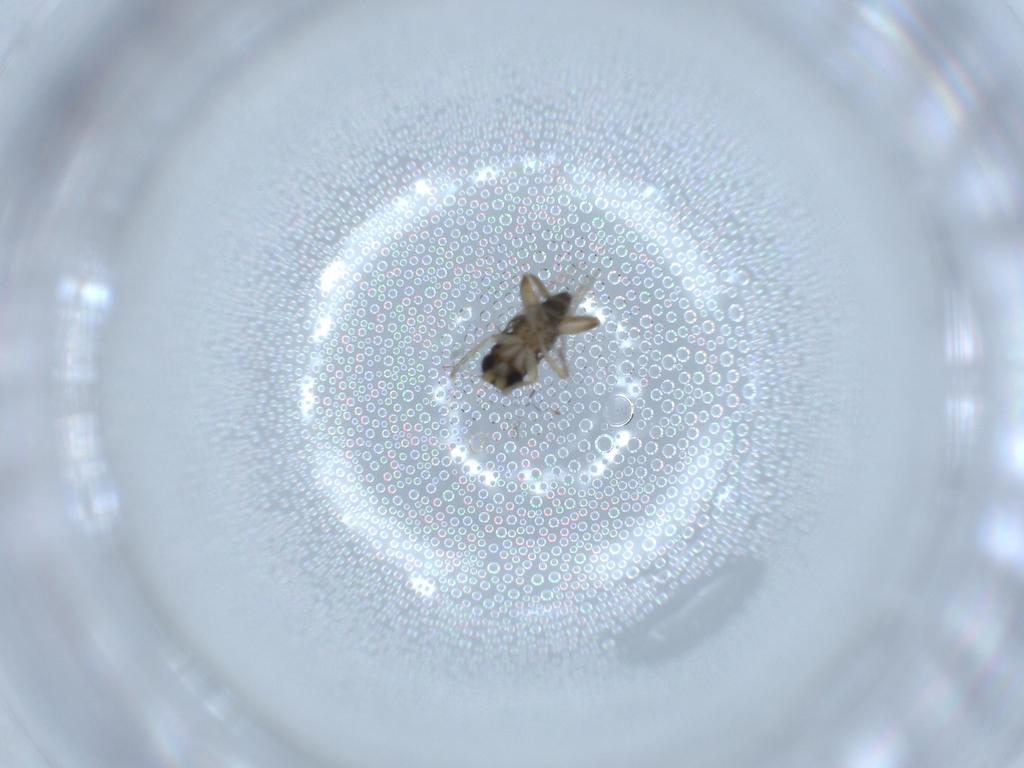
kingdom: Animalia
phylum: Arthropoda
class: Insecta
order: Diptera
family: Phoridae
